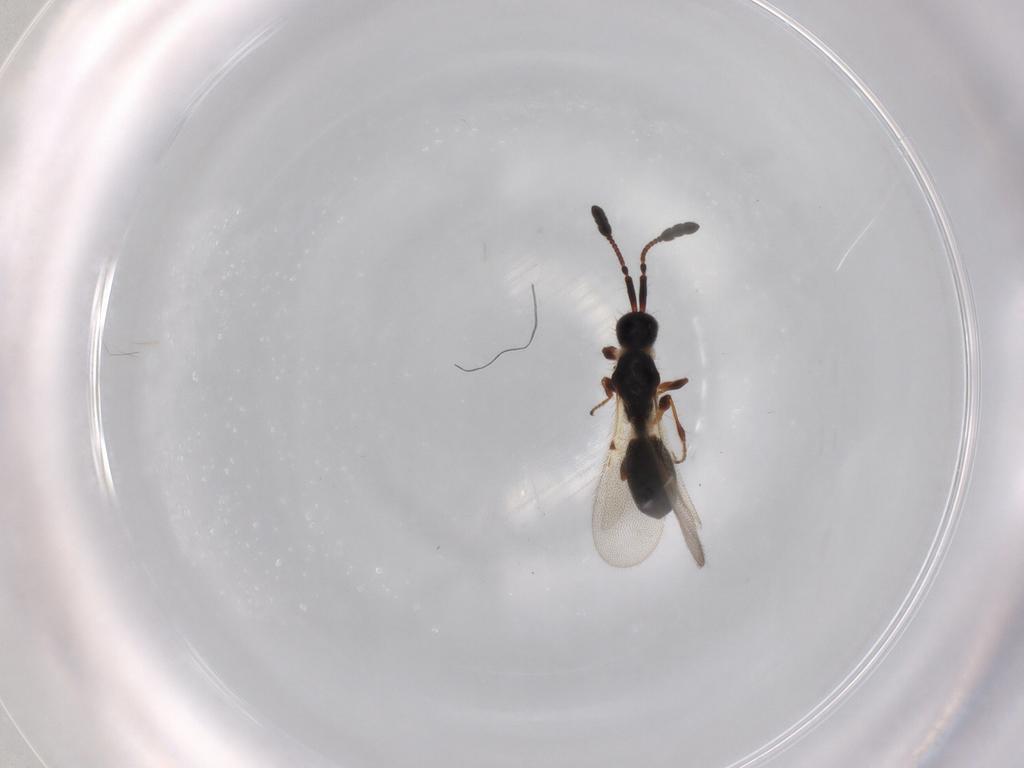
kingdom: Animalia
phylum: Arthropoda
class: Insecta
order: Hymenoptera
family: Diapriidae
